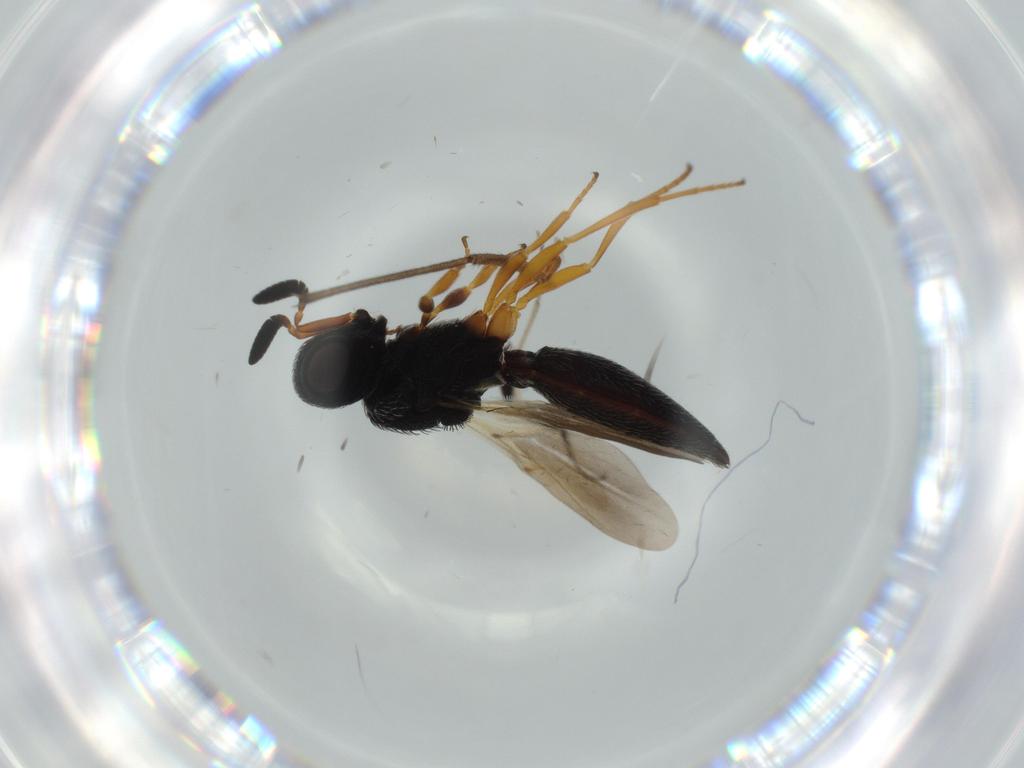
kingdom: Animalia
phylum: Arthropoda
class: Insecta
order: Hymenoptera
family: Scelionidae
